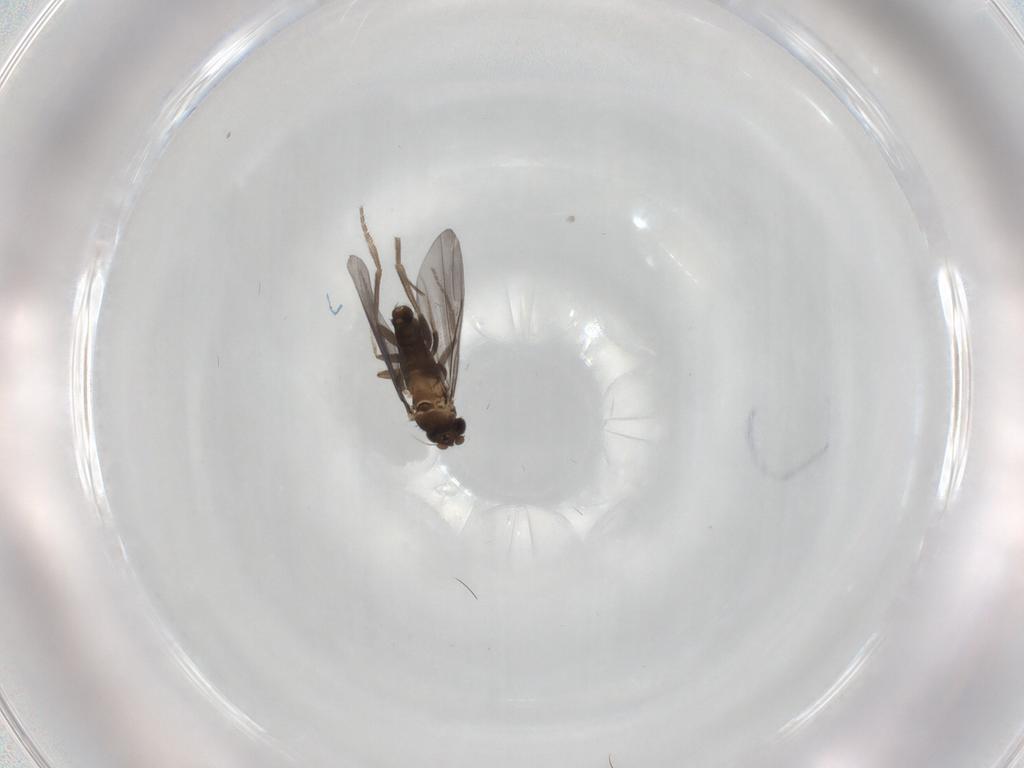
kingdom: Animalia
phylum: Arthropoda
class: Insecta
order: Diptera
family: Phoridae
